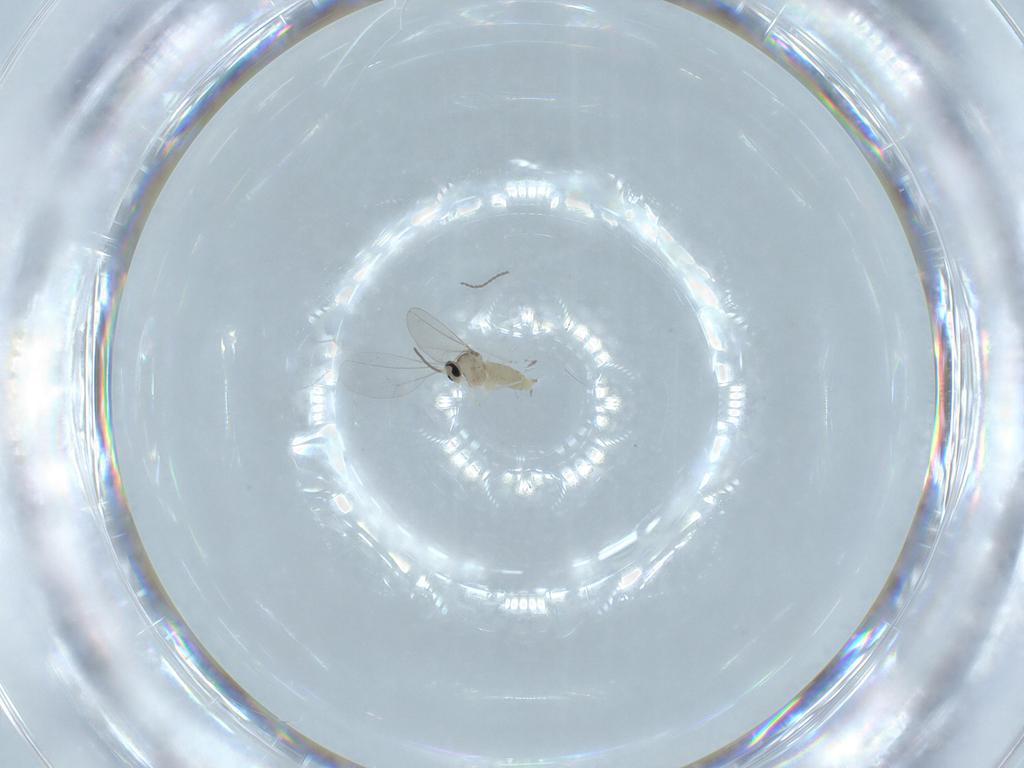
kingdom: Animalia
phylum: Arthropoda
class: Insecta
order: Diptera
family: Cecidomyiidae
